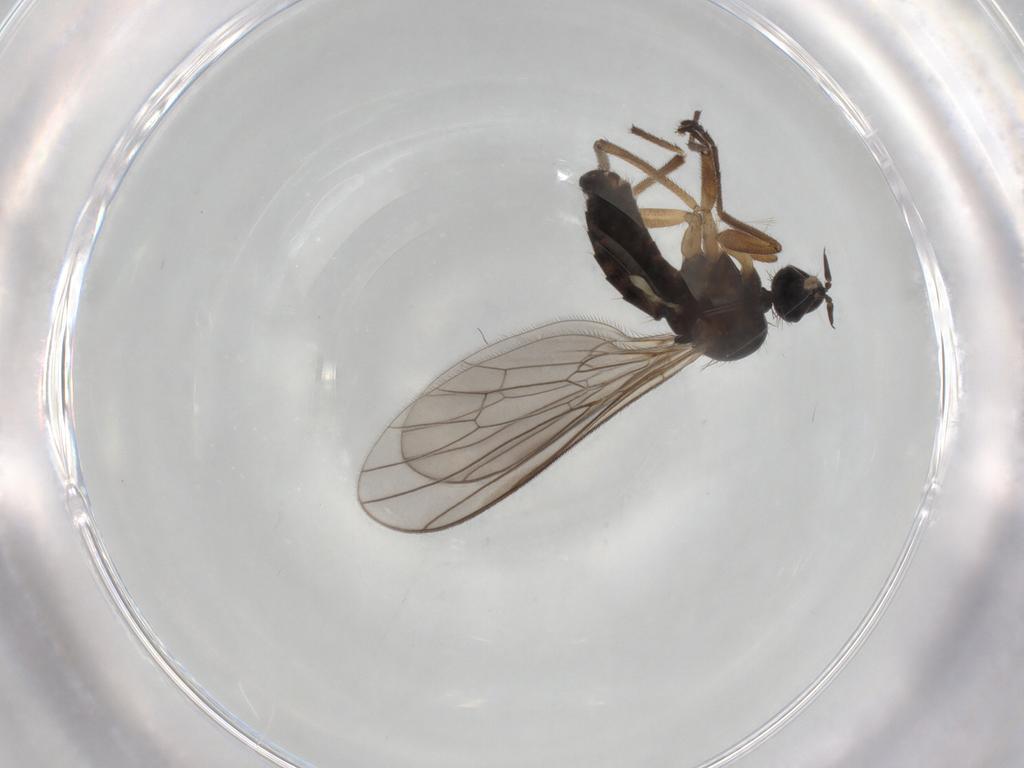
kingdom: Animalia
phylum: Arthropoda
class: Insecta
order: Diptera
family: Empididae
